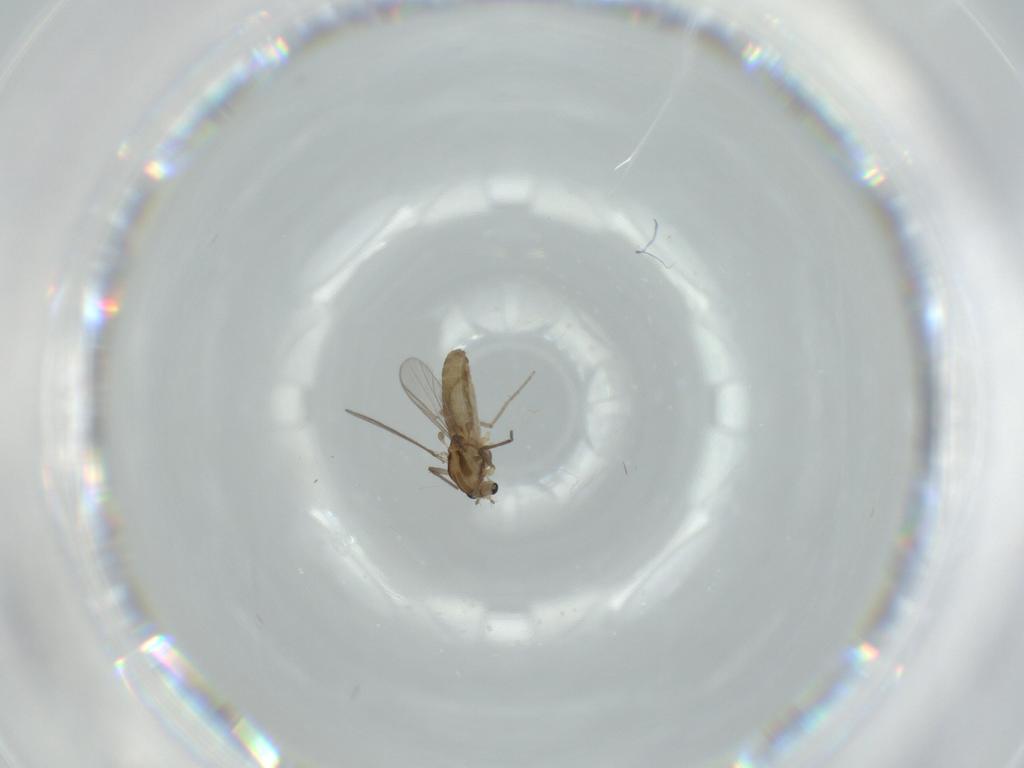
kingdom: Animalia
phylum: Arthropoda
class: Insecta
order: Diptera
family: Chironomidae
